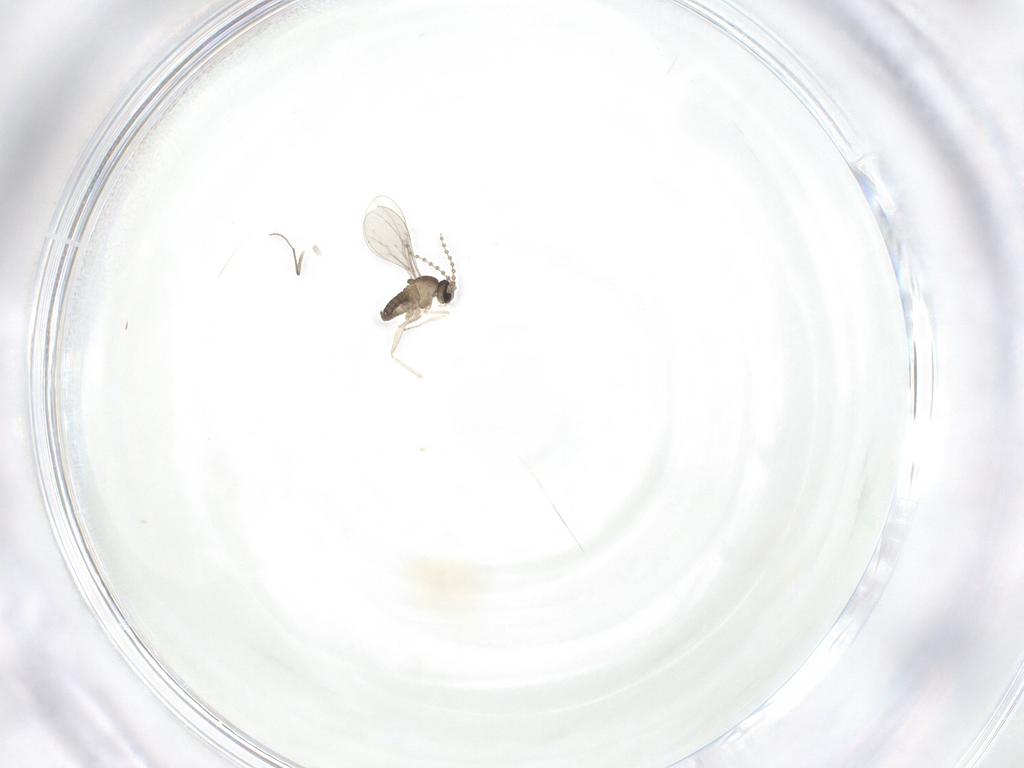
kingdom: Animalia
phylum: Arthropoda
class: Insecta
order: Diptera
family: Cecidomyiidae
